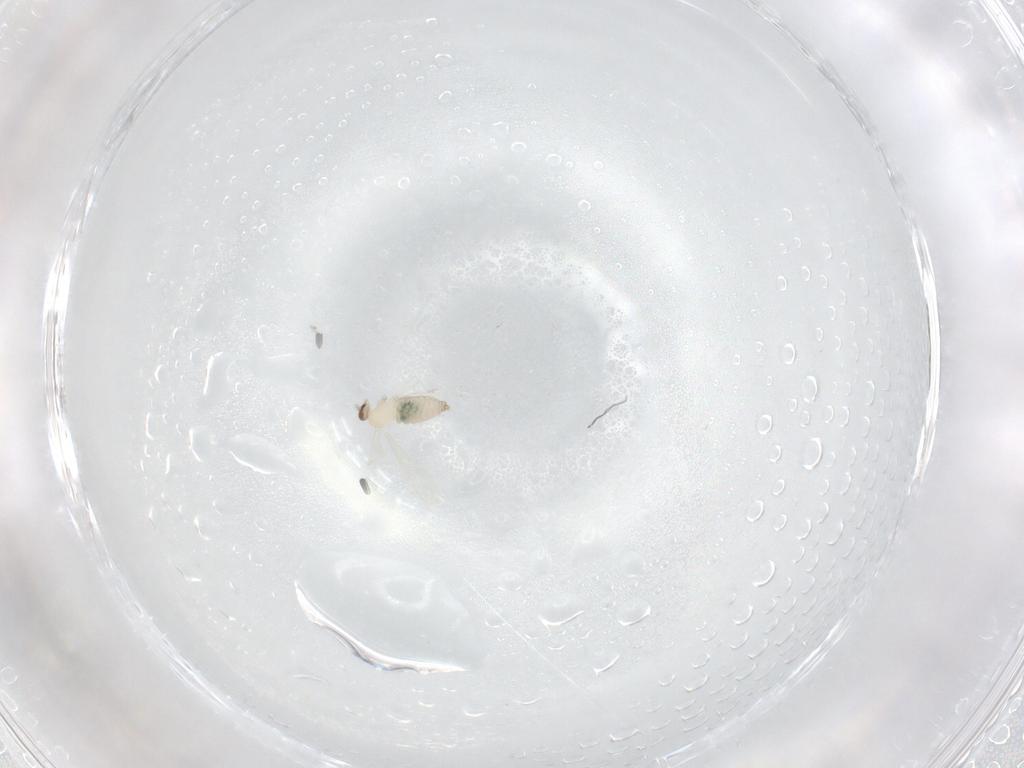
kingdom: Animalia
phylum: Arthropoda
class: Insecta
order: Diptera
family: Cecidomyiidae
